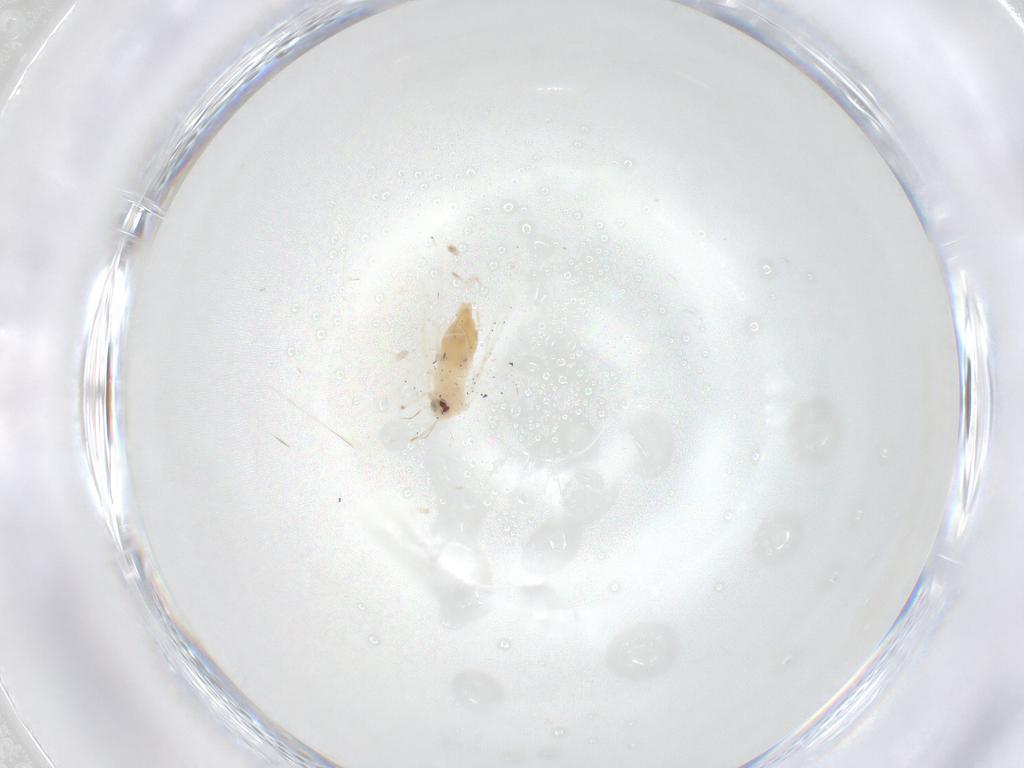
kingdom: Animalia
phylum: Arthropoda
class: Insecta
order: Hemiptera
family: Aleyrodidae
